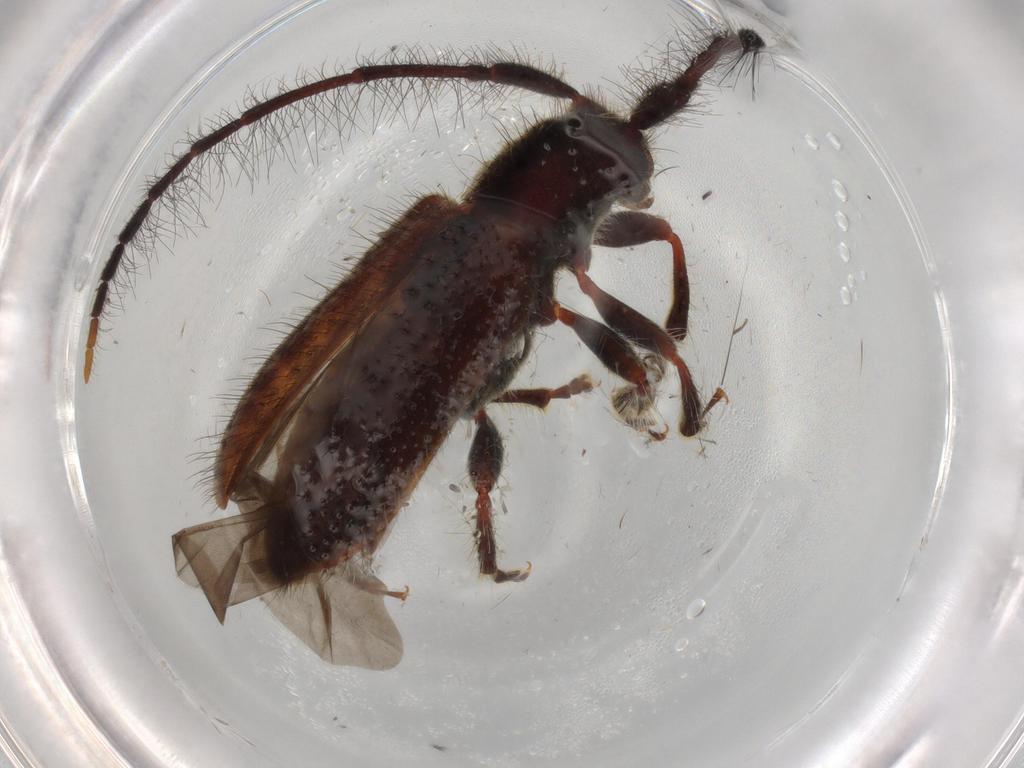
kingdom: Animalia
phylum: Arthropoda
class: Insecta
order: Coleoptera
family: Cerambycidae
